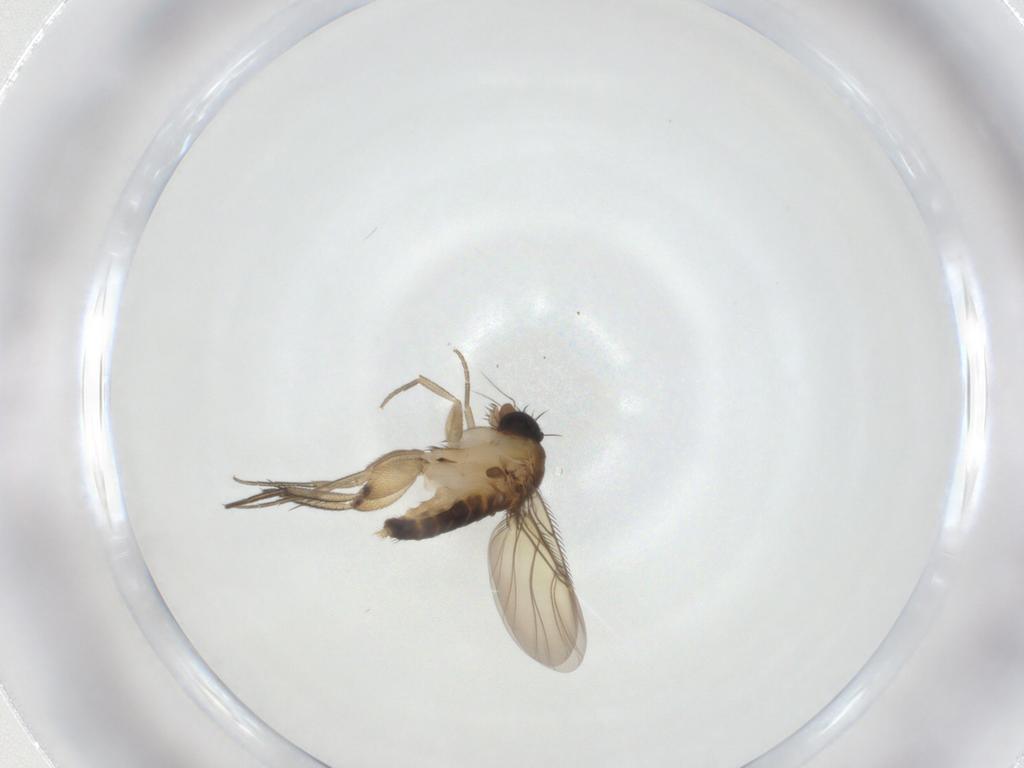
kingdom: Animalia
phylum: Arthropoda
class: Insecta
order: Diptera
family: Phoridae
